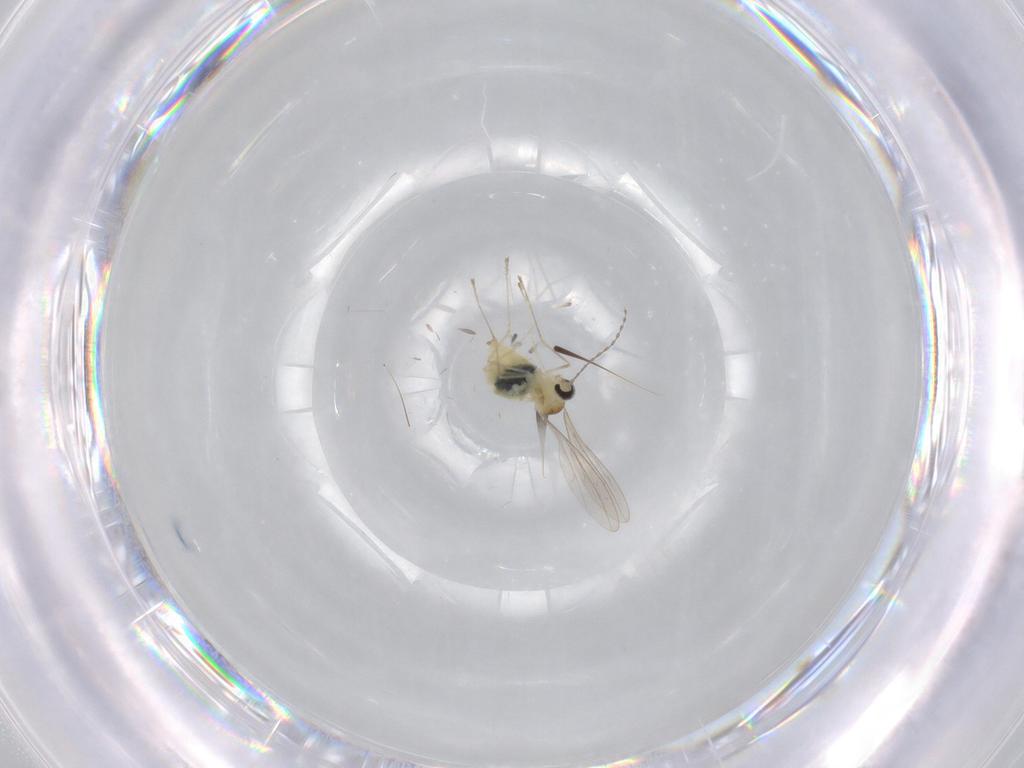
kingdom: Animalia
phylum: Arthropoda
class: Insecta
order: Diptera
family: Cecidomyiidae
